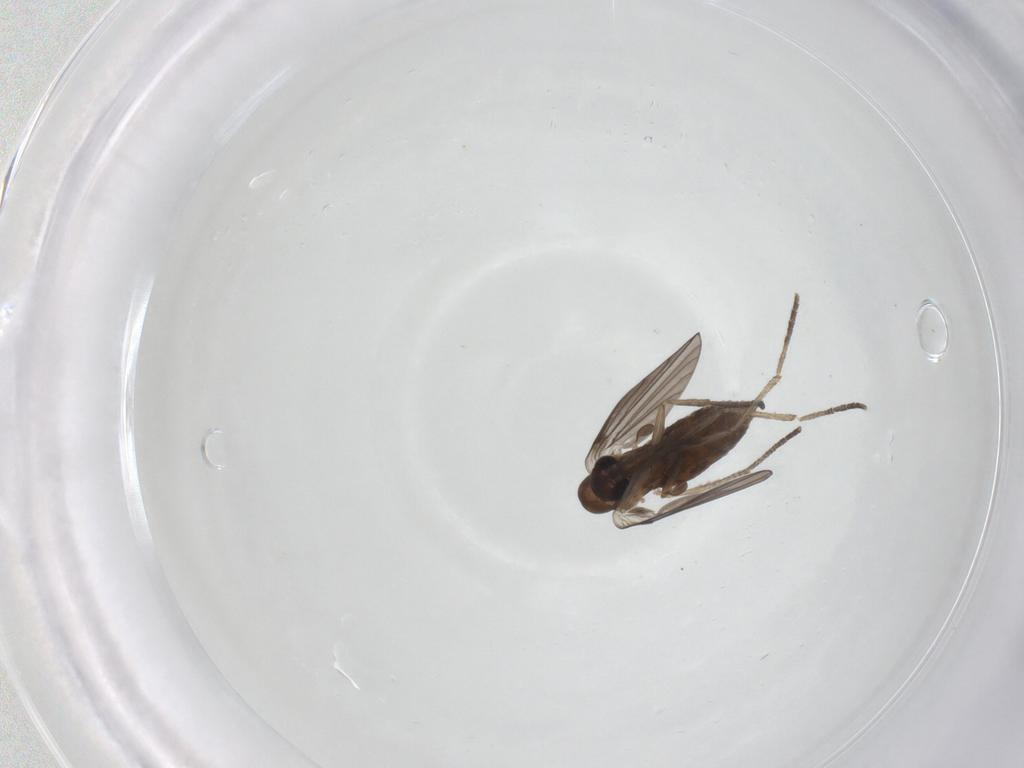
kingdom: Animalia
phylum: Arthropoda
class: Insecta
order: Diptera
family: Psychodidae
